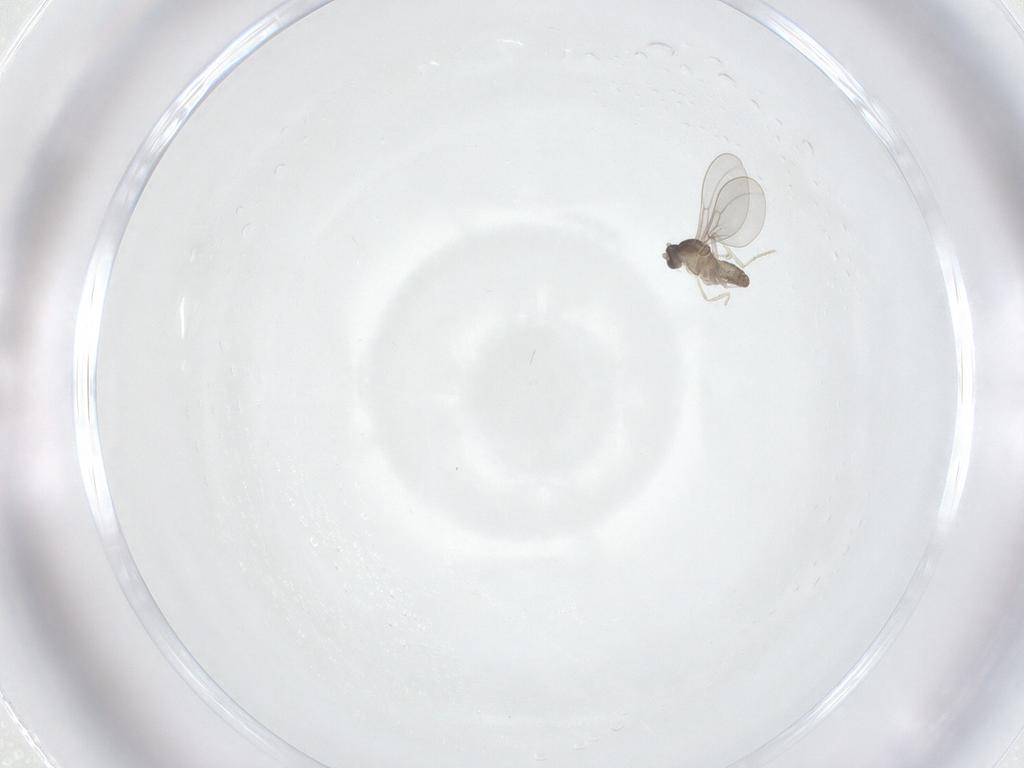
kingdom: Animalia
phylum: Arthropoda
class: Insecta
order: Diptera
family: Cecidomyiidae
